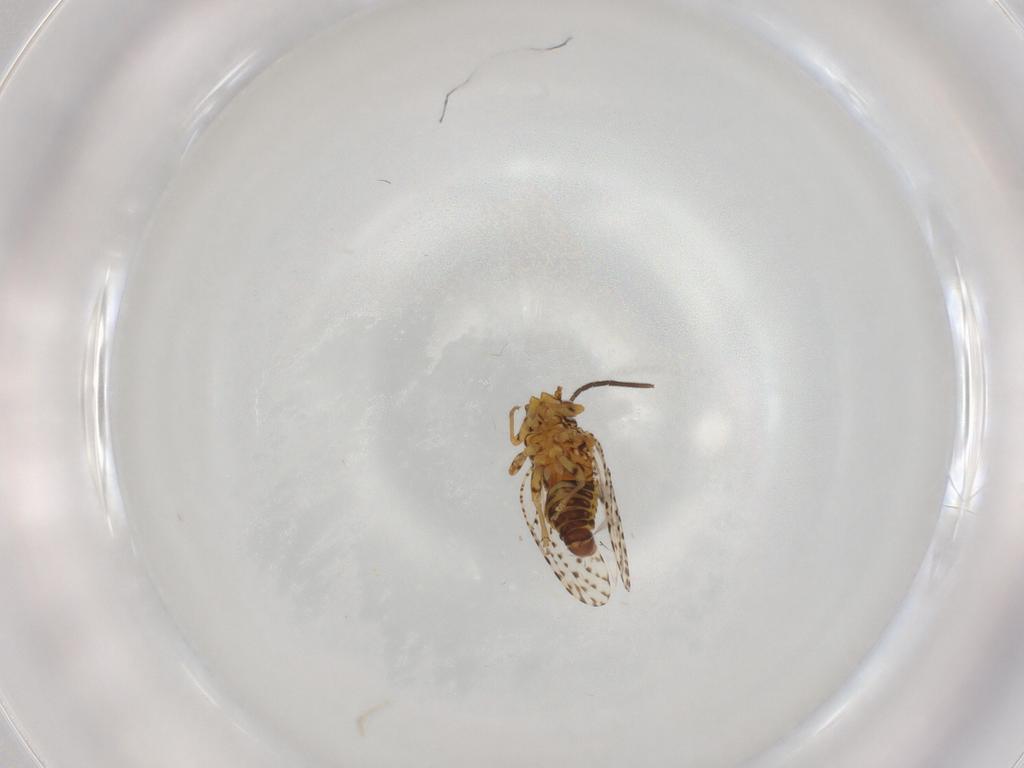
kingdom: Animalia
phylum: Arthropoda
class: Insecta
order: Hemiptera
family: Psyllidae
